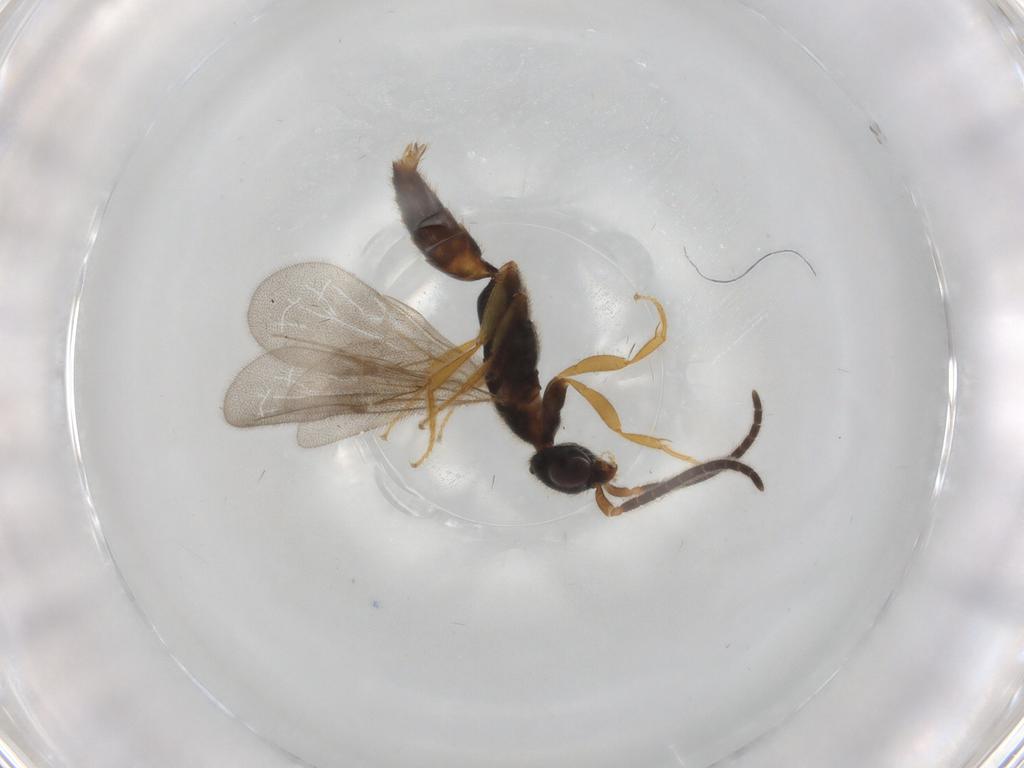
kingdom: Animalia
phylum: Arthropoda
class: Insecta
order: Hymenoptera
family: Bethylidae
